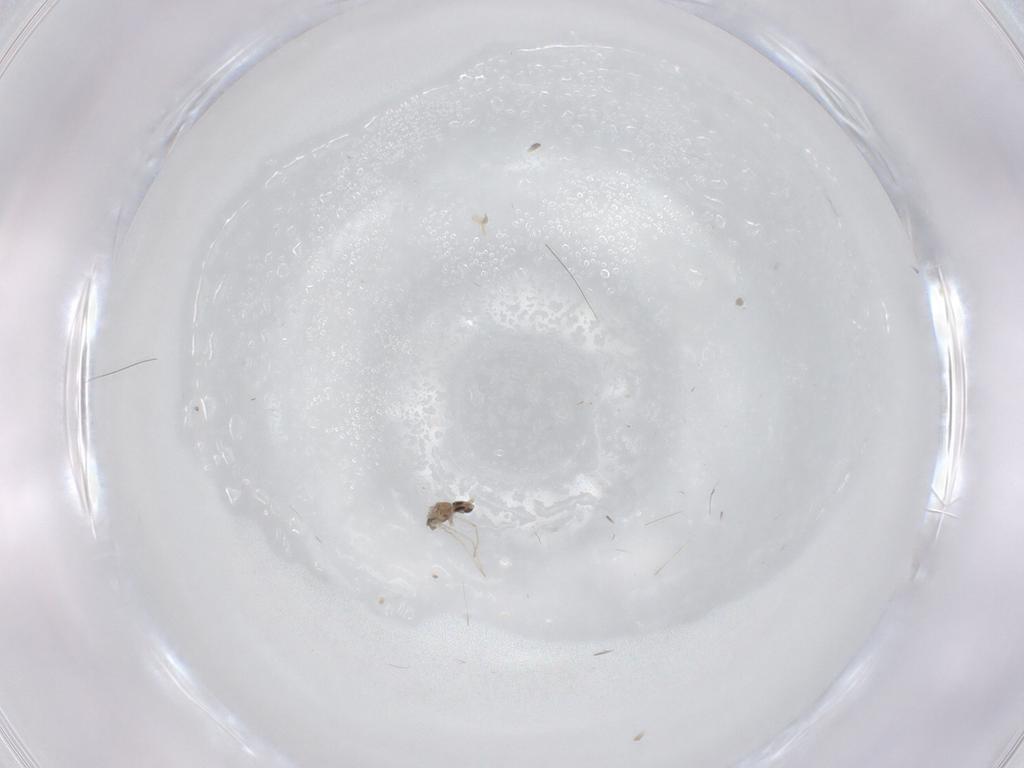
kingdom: Animalia
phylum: Arthropoda
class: Insecta
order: Diptera
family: Cecidomyiidae
